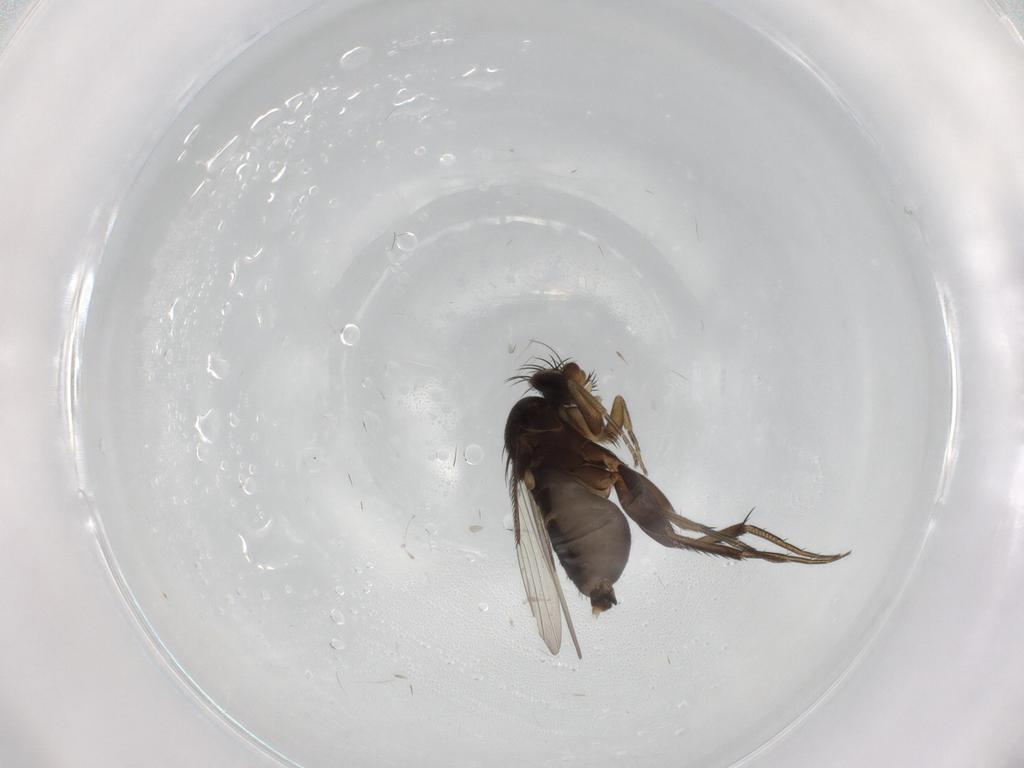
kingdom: Animalia
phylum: Arthropoda
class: Insecta
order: Diptera
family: Phoridae
